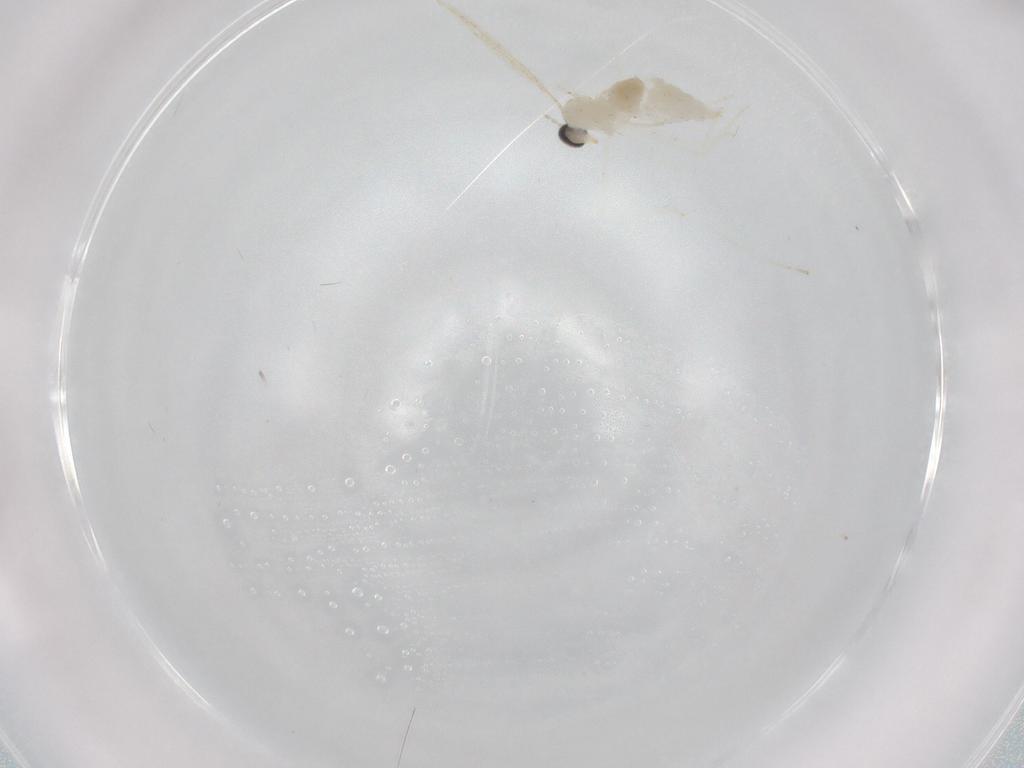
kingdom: Animalia
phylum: Arthropoda
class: Insecta
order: Diptera
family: Cecidomyiidae
